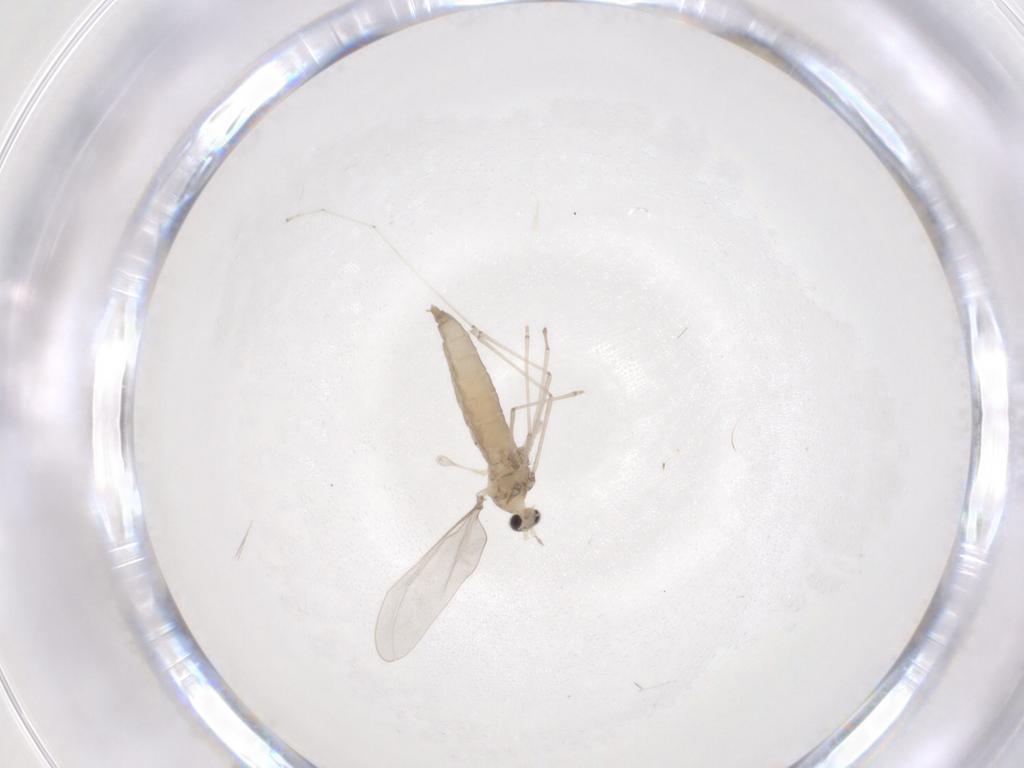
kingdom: Animalia
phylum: Arthropoda
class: Insecta
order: Diptera
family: Cecidomyiidae
